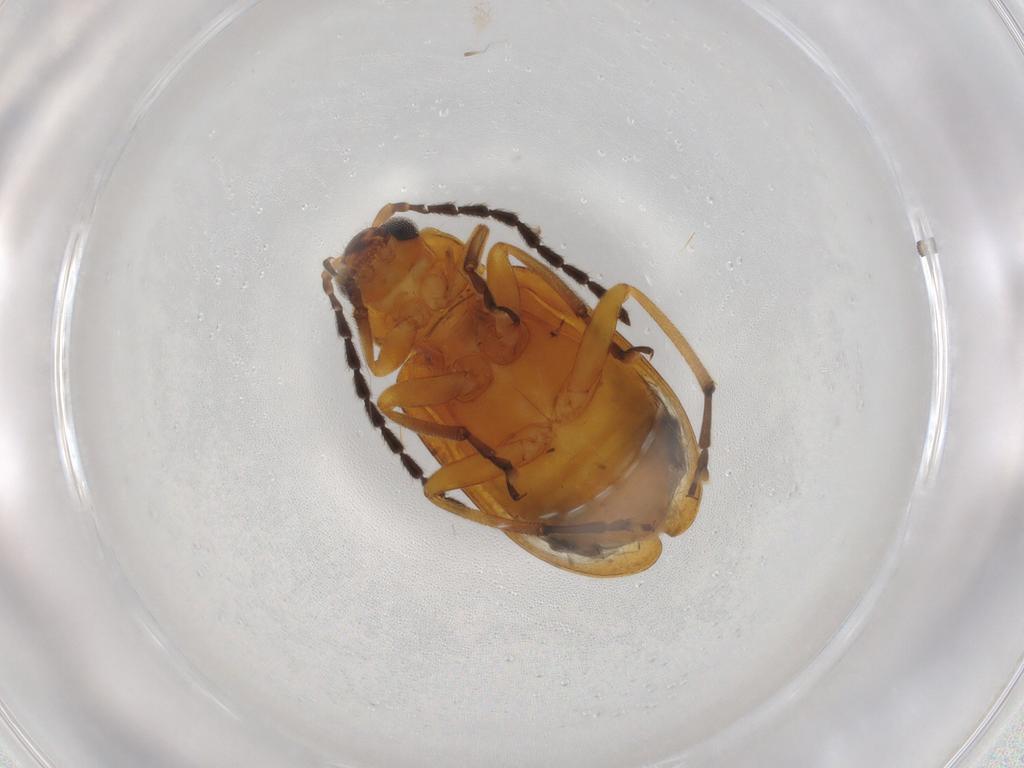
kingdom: Animalia
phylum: Arthropoda
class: Insecta
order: Coleoptera
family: Chrysomelidae
